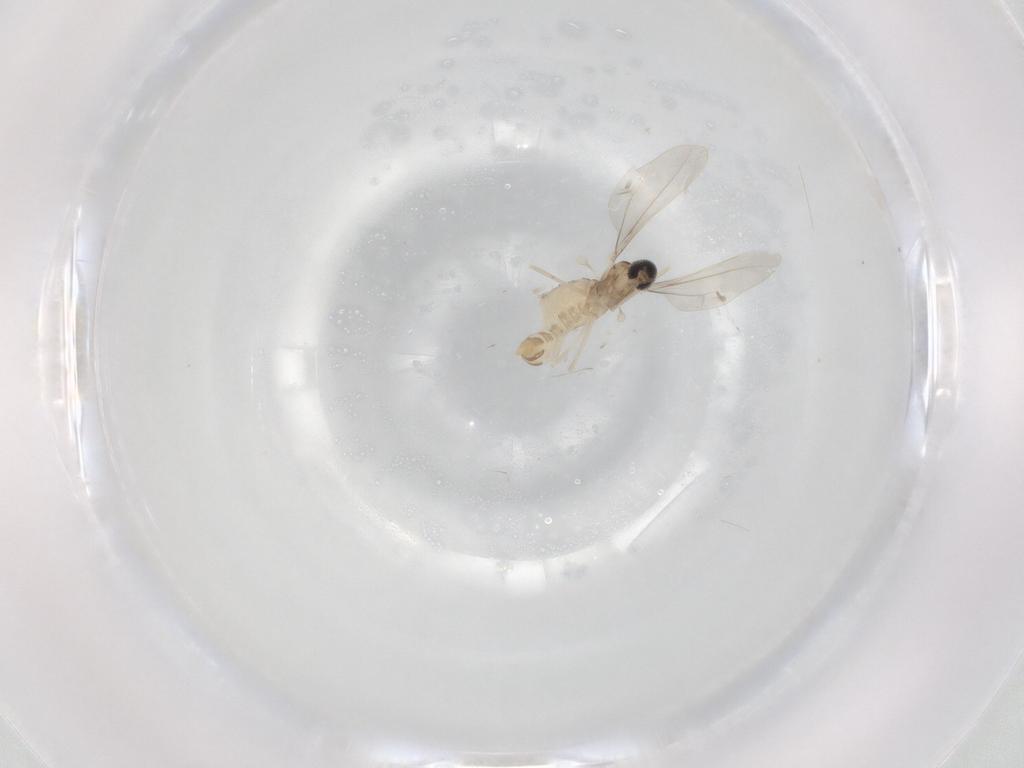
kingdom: Animalia
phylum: Arthropoda
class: Insecta
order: Diptera
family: Cecidomyiidae
